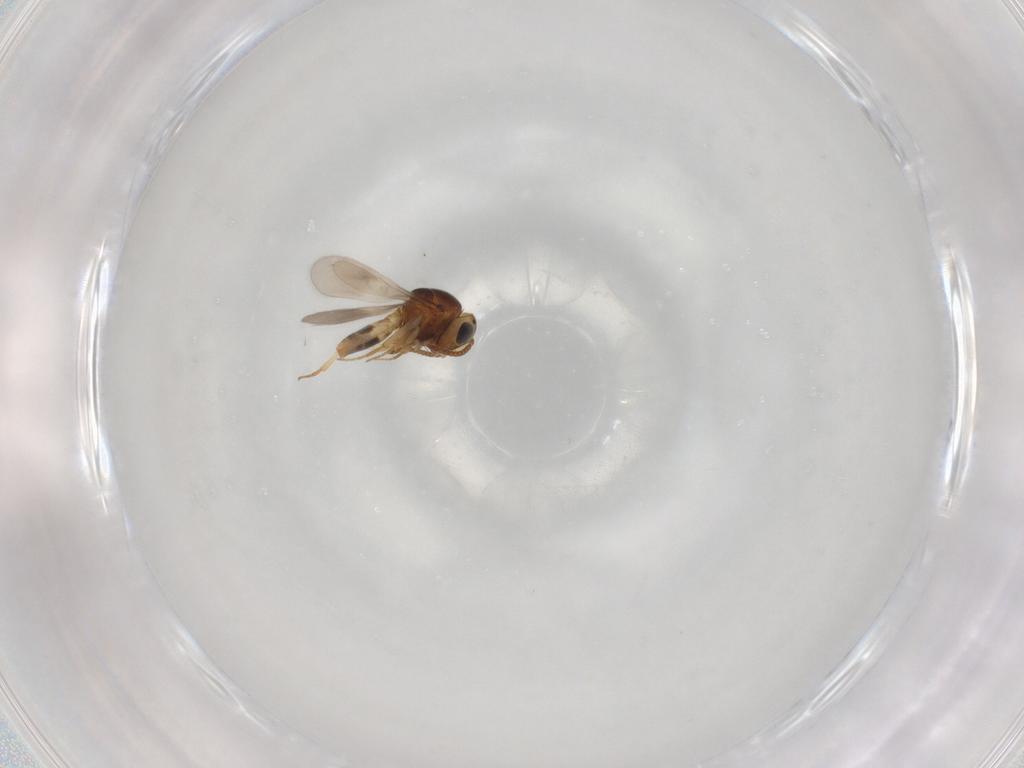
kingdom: Animalia
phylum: Arthropoda
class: Insecta
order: Hymenoptera
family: Scelionidae
